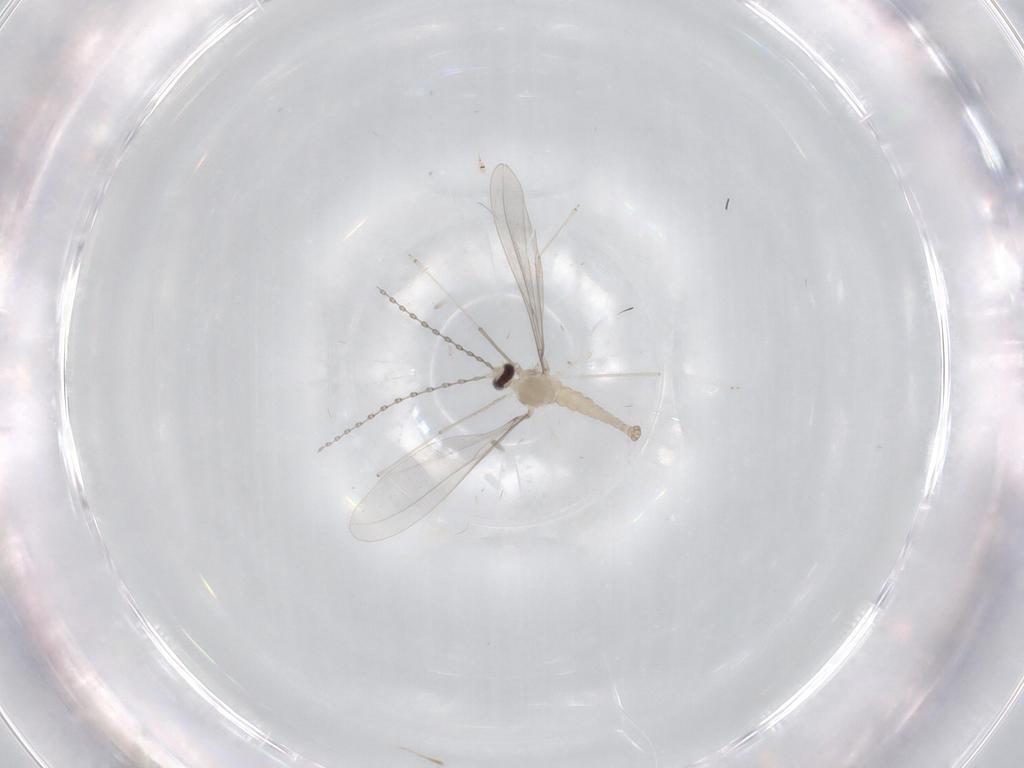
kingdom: Animalia
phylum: Arthropoda
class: Insecta
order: Diptera
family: Cecidomyiidae
